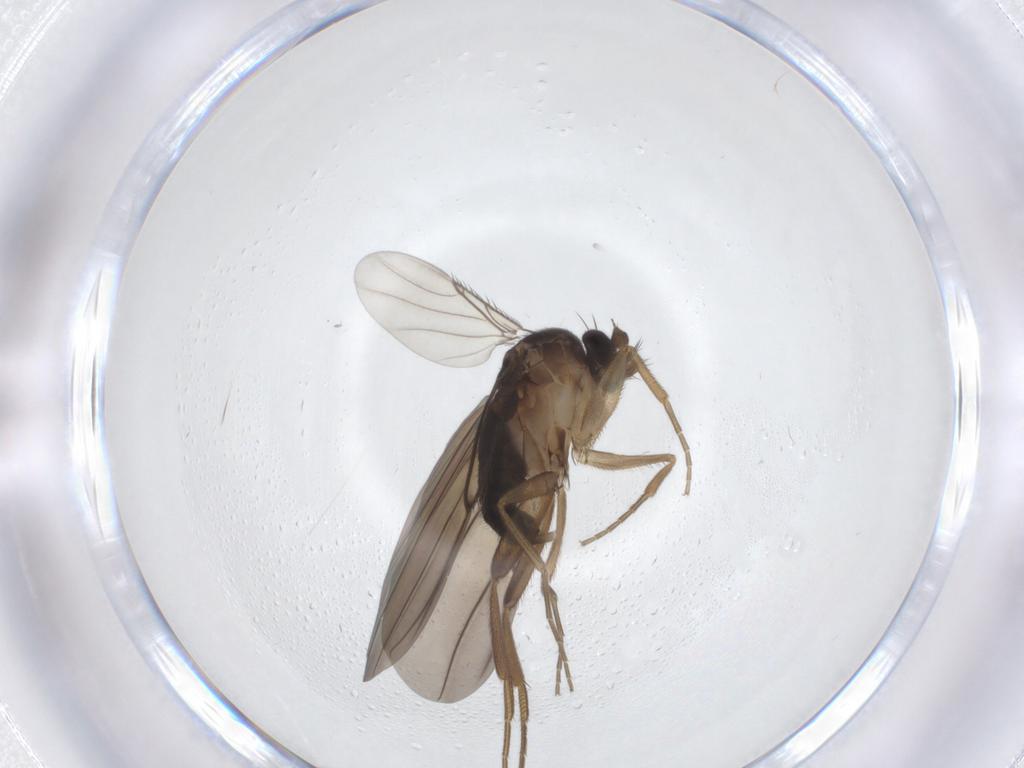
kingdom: Animalia
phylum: Arthropoda
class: Insecta
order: Diptera
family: Phoridae
